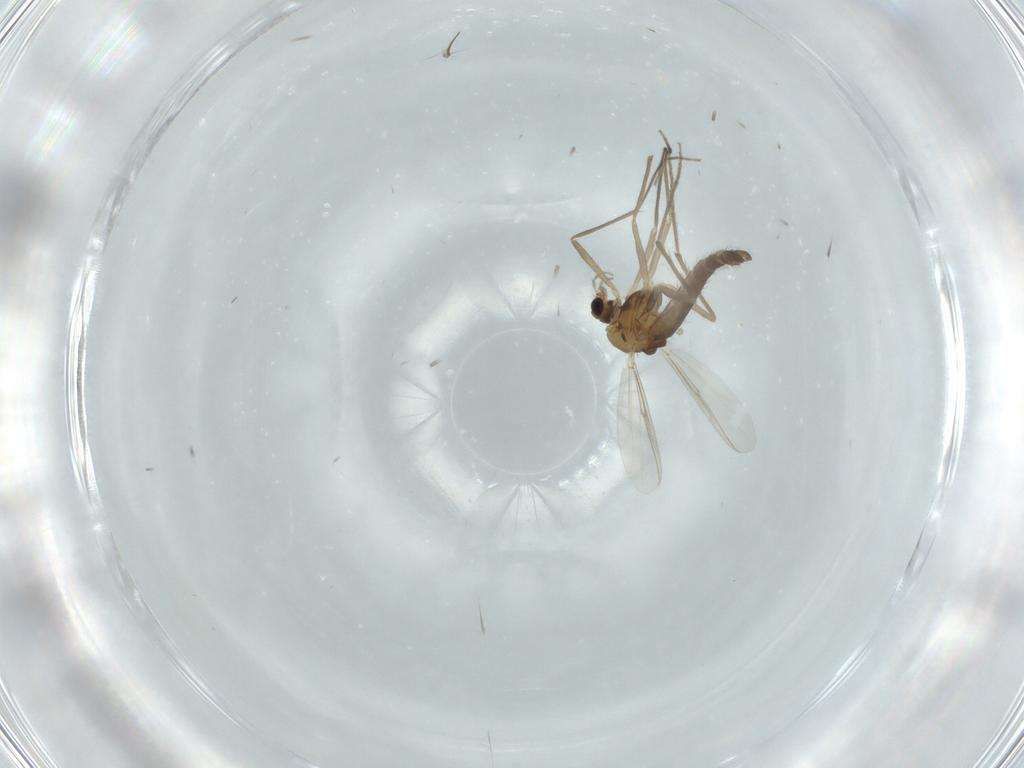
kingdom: Animalia
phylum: Arthropoda
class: Insecta
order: Diptera
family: Chironomidae
